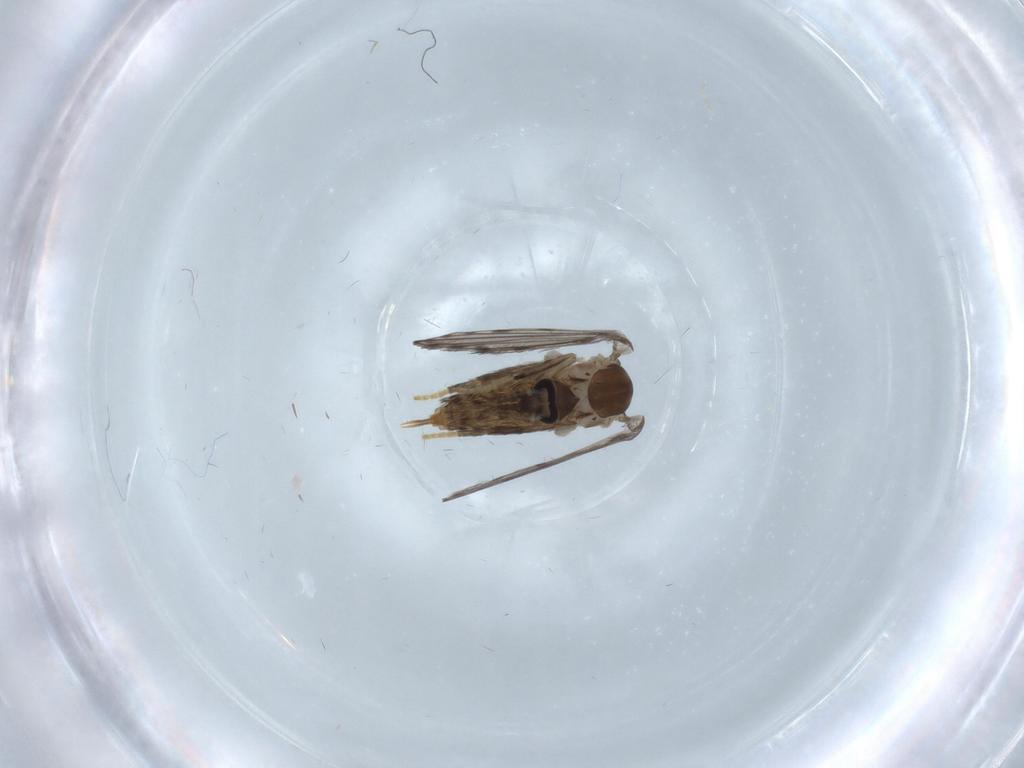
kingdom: Animalia
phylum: Arthropoda
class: Insecta
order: Diptera
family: Psychodidae
